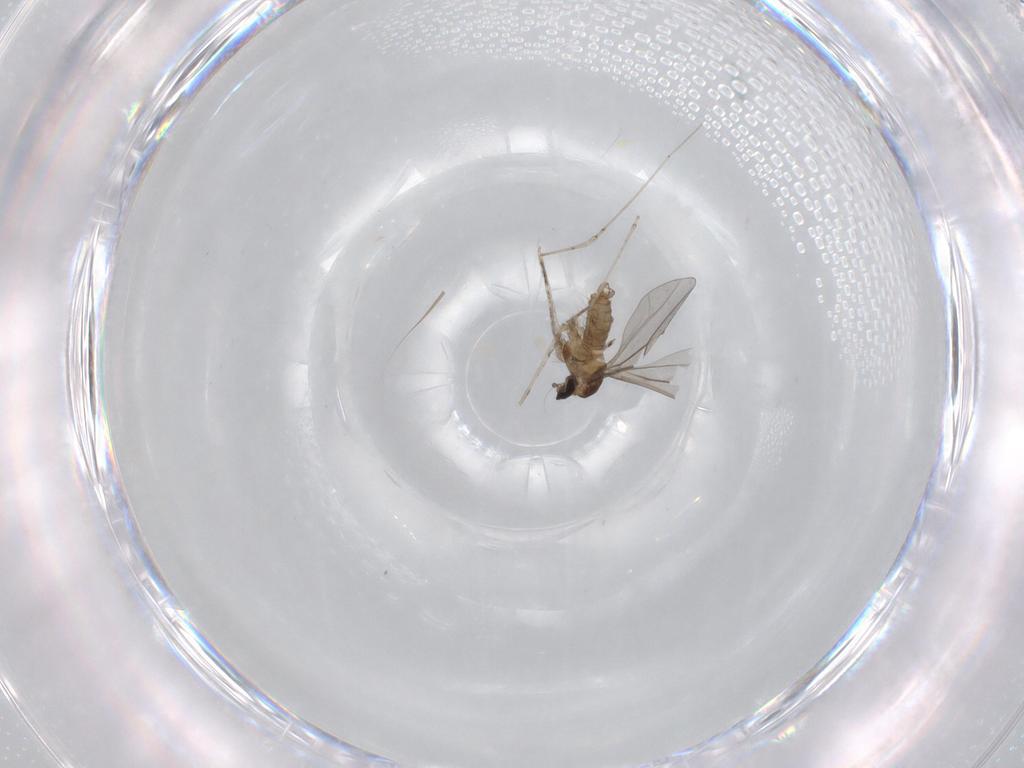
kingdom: Animalia
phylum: Arthropoda
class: Insecta
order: Diptera
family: Cecidomyiidae
